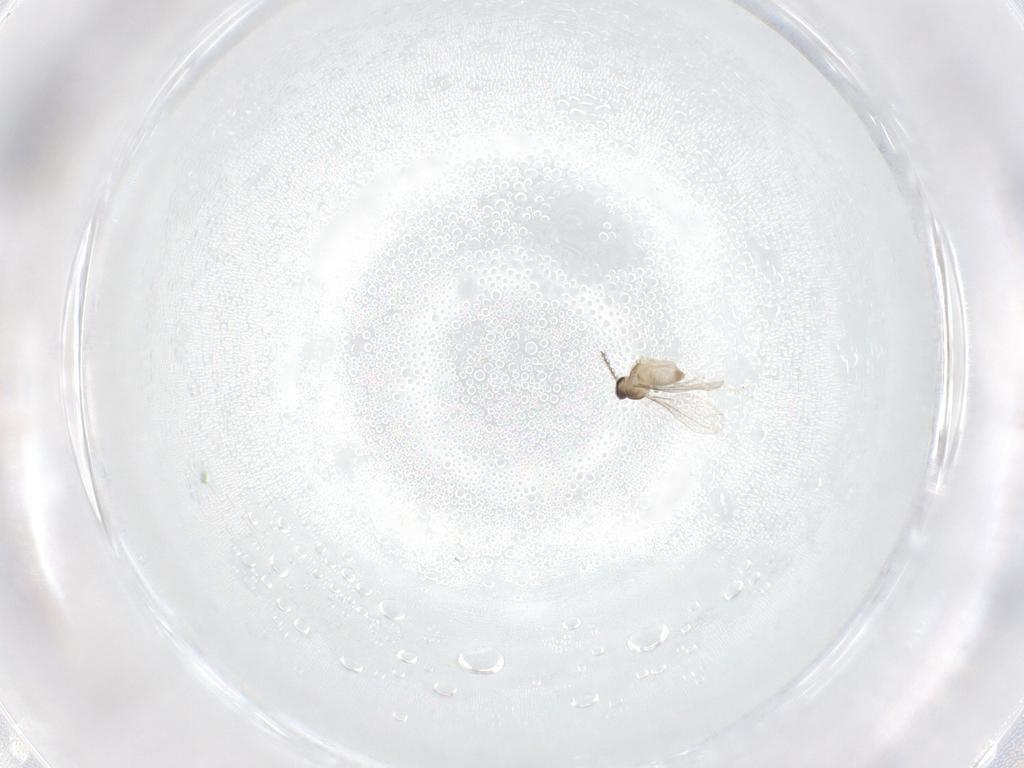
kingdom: Animalia
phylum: Arthropoda
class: Insecta
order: Diptera
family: Cecidomyiidae
